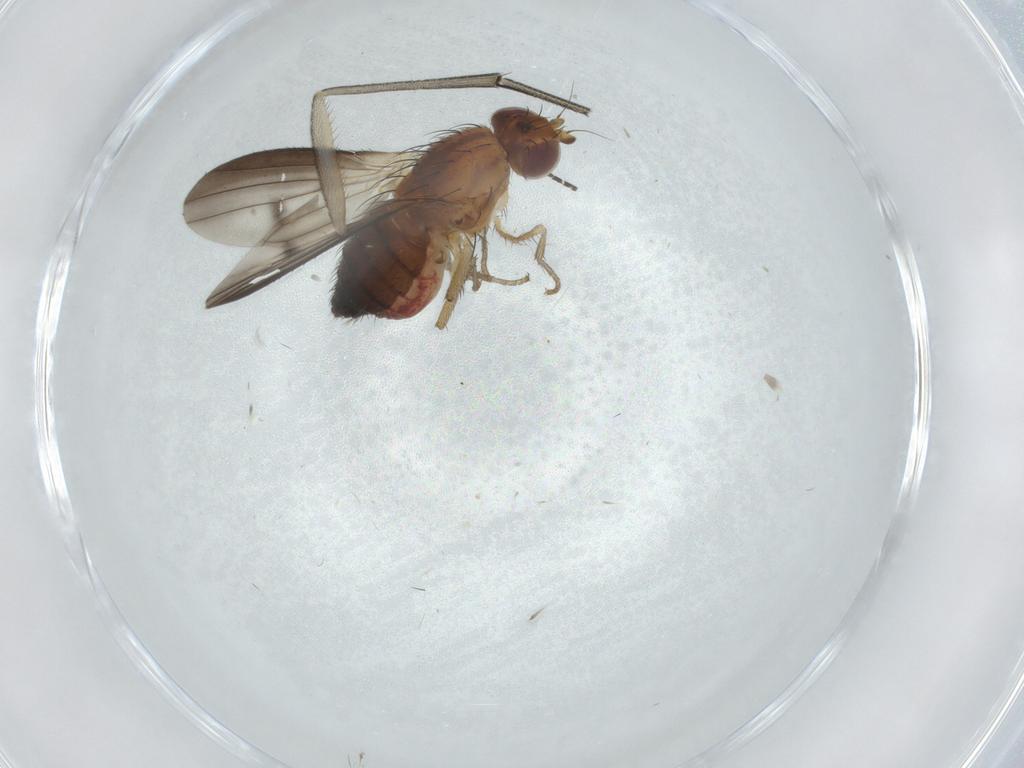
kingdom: Animalia
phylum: Arthropoda
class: Insecta
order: Diptera
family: Keroplatidae
